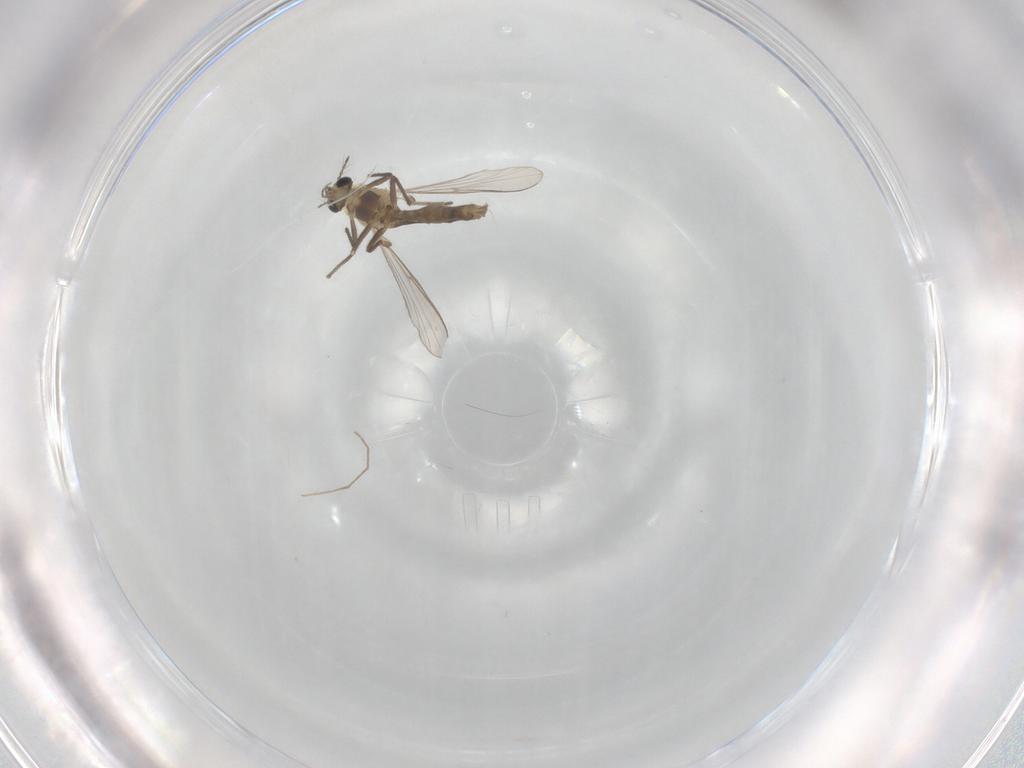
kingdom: Animalia
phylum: Arthropoda
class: Insecta
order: Diptera
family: Chironomidae
